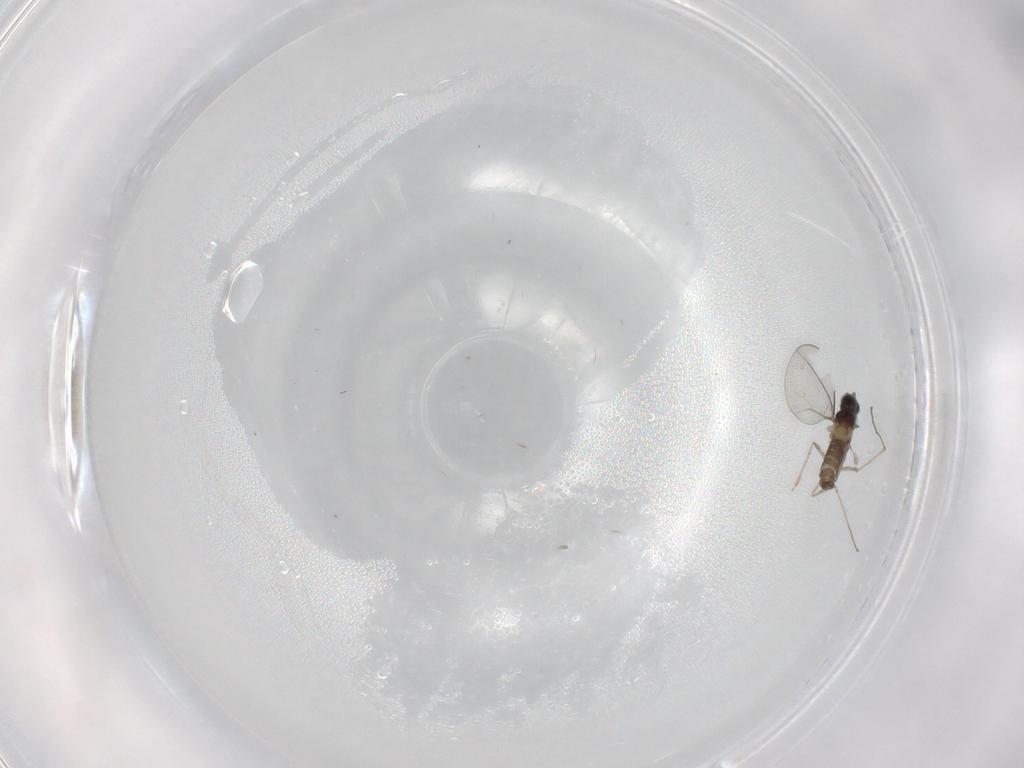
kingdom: Animalia
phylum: Arthropoda
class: Insecta
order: Diptera
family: Cecidomyiidae
